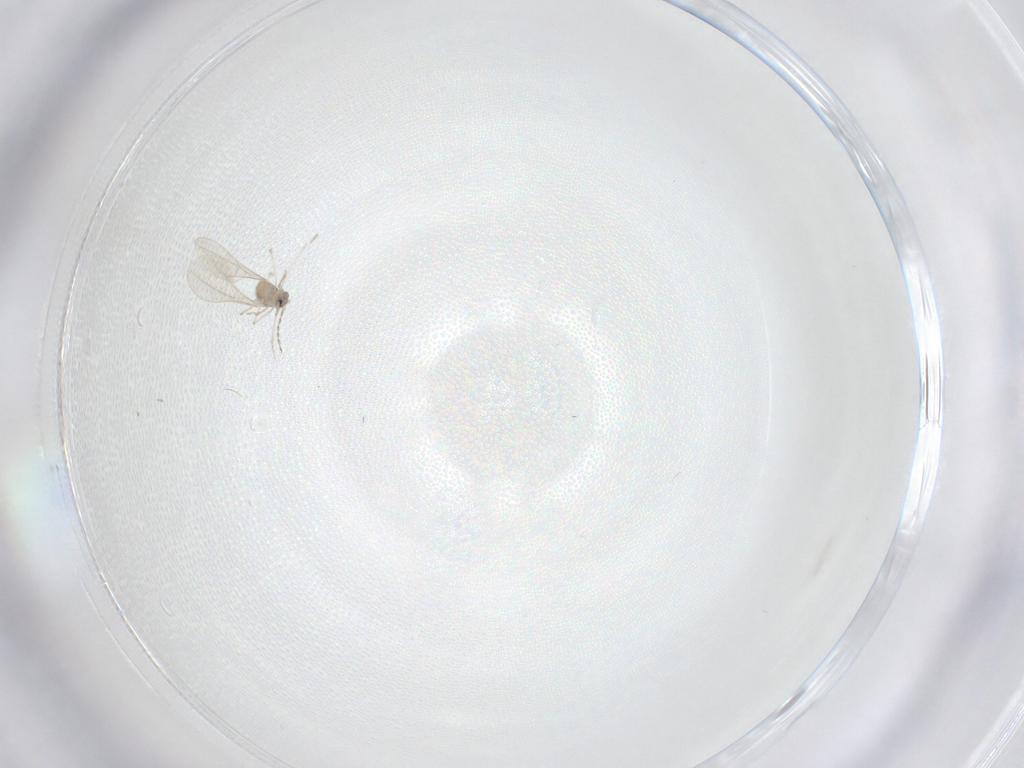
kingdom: Animalia
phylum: Arthropoda
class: Insecta
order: Diptera
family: Cecidomyiidae
